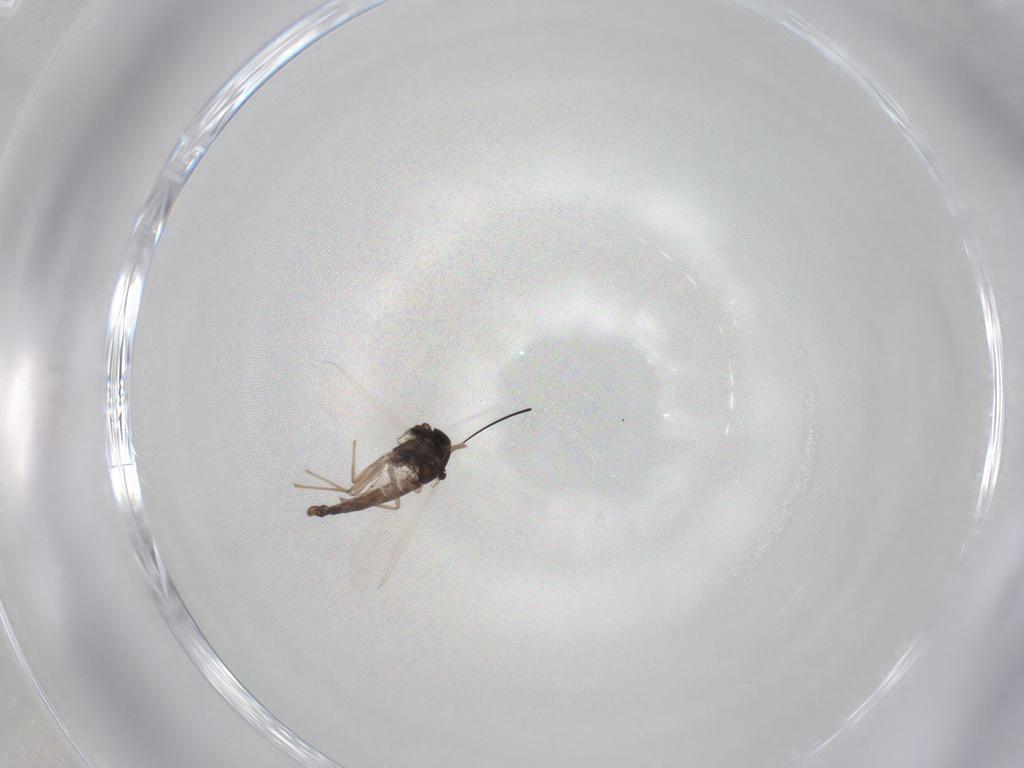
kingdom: Animalia
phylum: Arthropoda
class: Insecta
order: Diptera
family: Chironomidae
